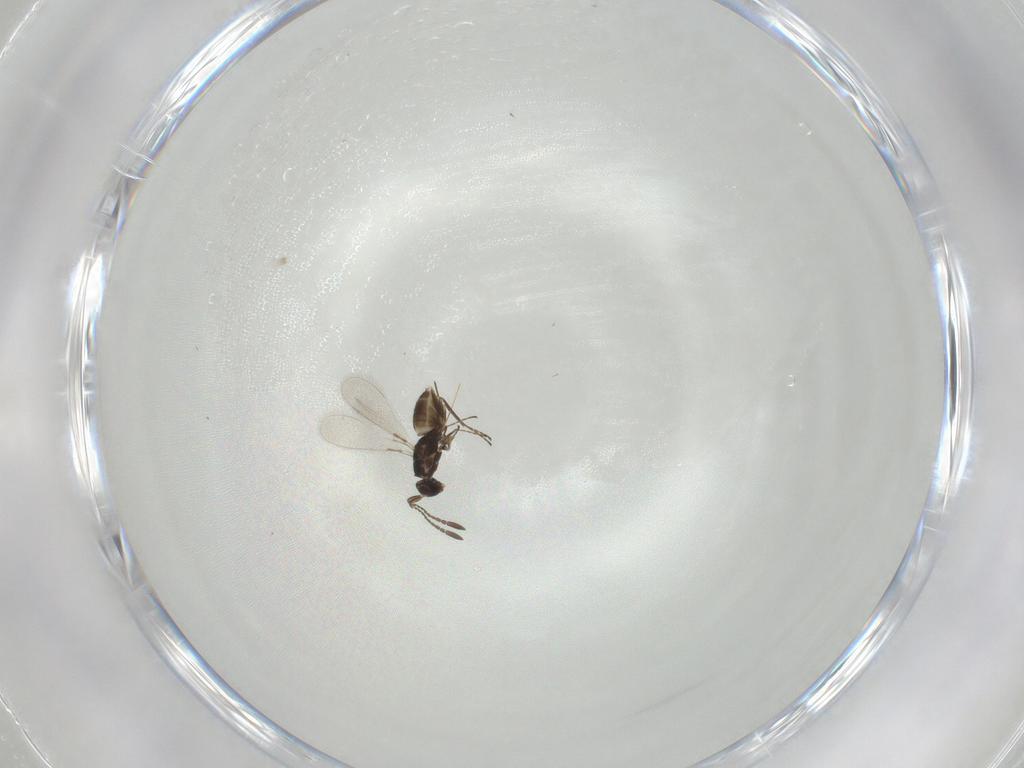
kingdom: Animalia
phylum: Arthropoda
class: Insecta
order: Hymenoptera
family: Mymaridae
